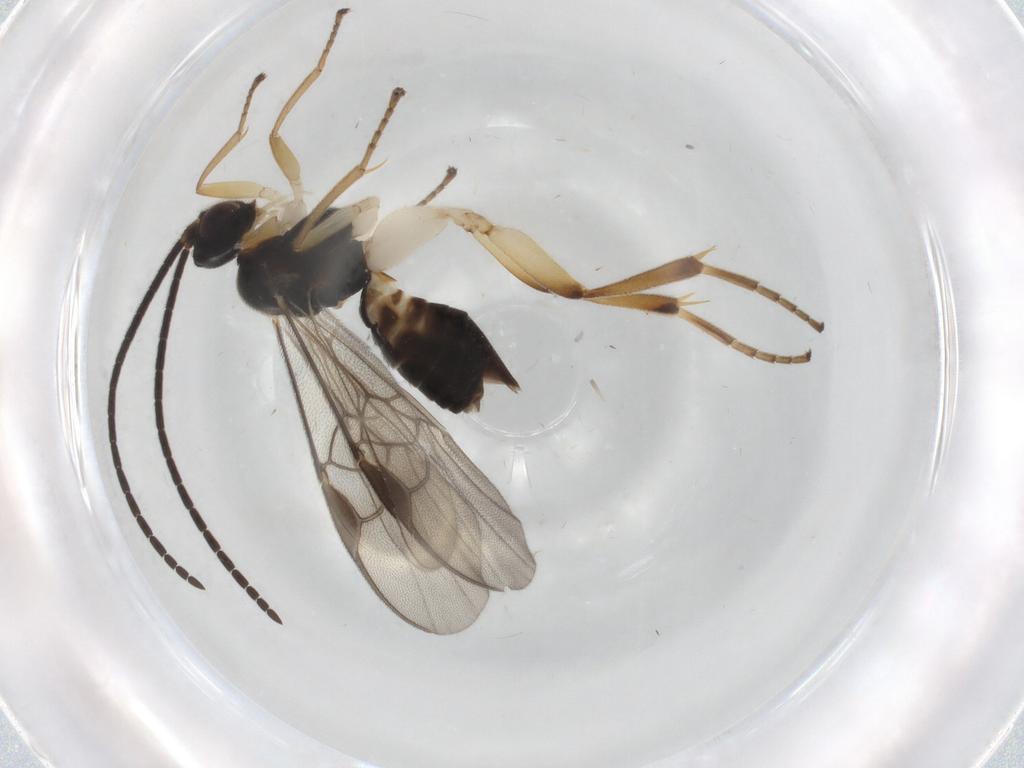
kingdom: Animalia
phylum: Arthropoda
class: Insecta
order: Hymenoptera
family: Braconidae
